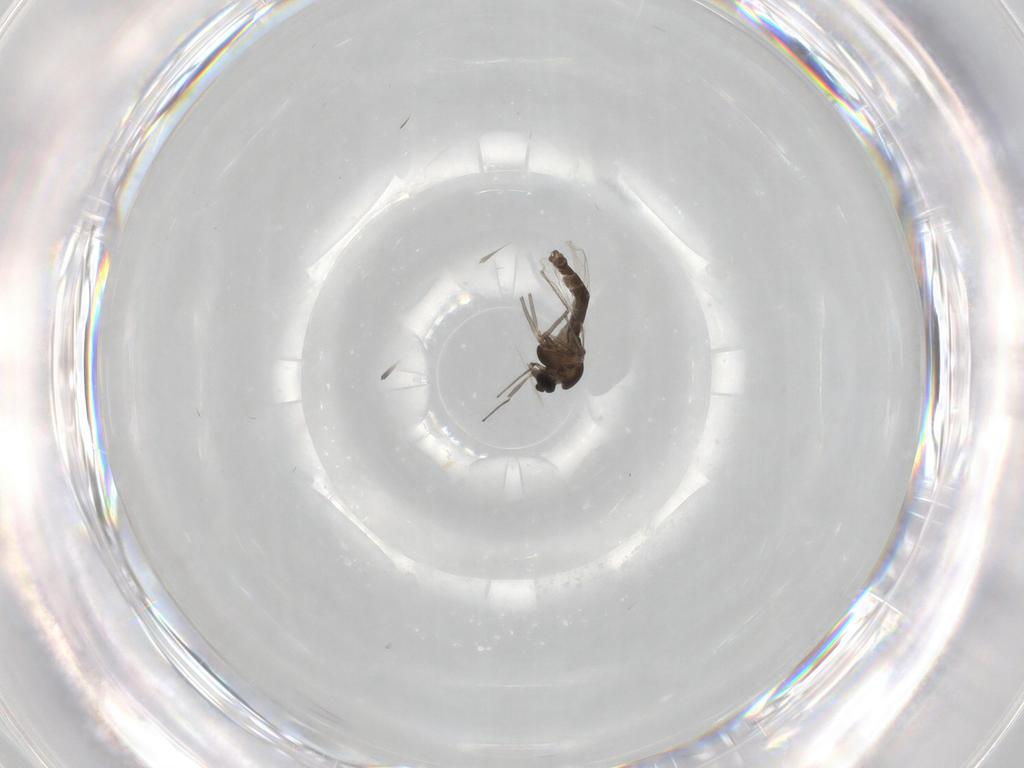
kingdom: Animalia
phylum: Arthropoda
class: Insecta
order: Diptera
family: Chironomidae
